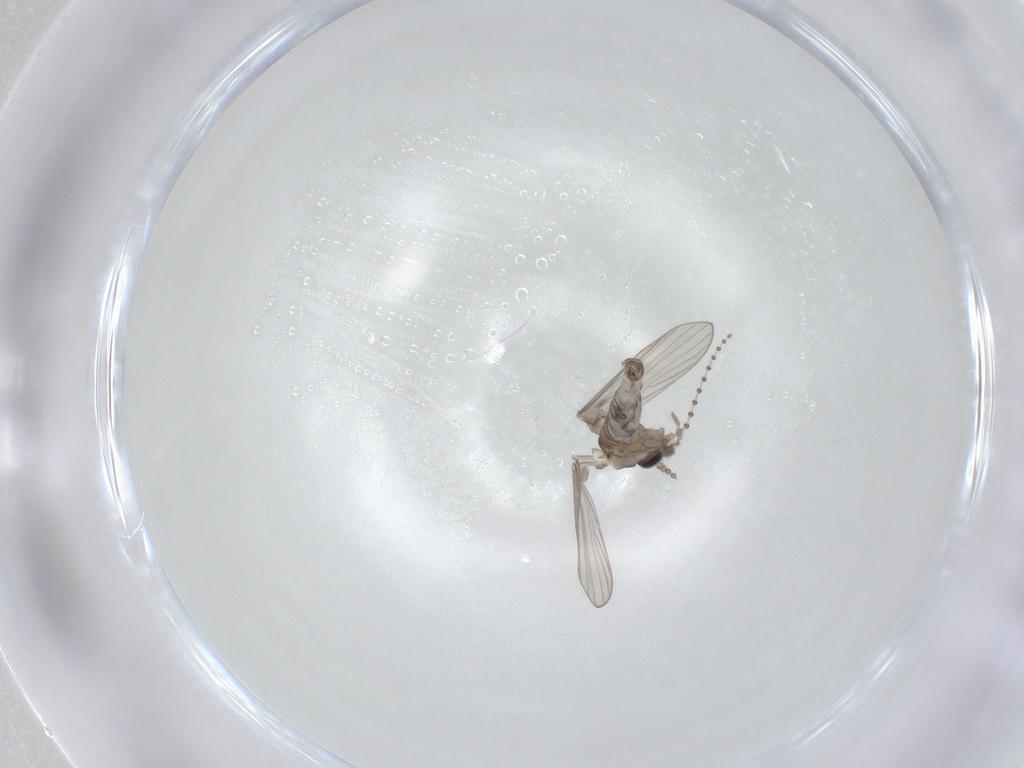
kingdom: Animalia
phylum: Arthropoda
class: Insecta
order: Diptera
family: Psychodidae
